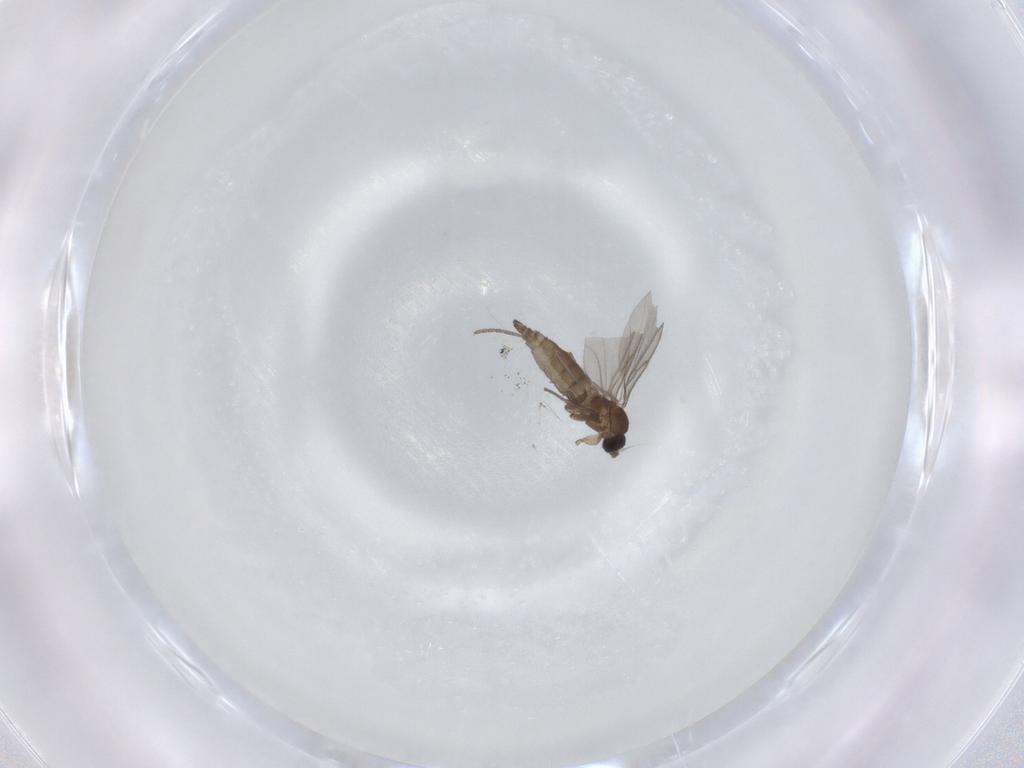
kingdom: Animalia
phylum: Arthropoda
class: Insecta
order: Diptera
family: Sciaridae
